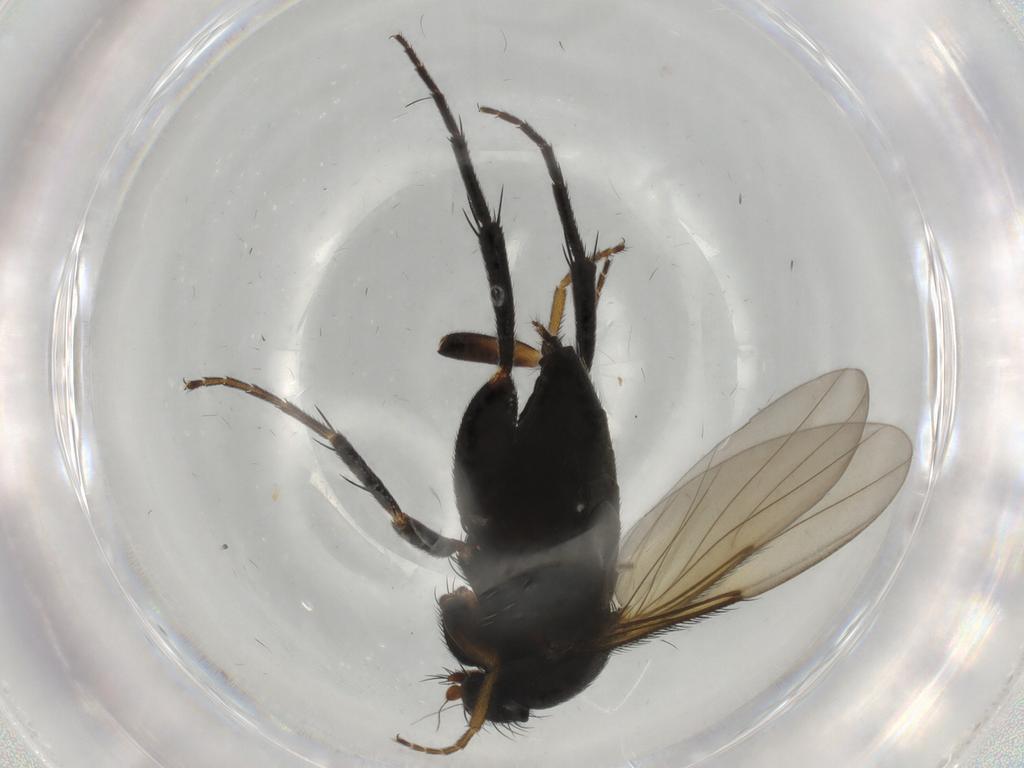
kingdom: Animalia
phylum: Arthropoda
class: Insecta
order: Diptera
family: Phoridae
